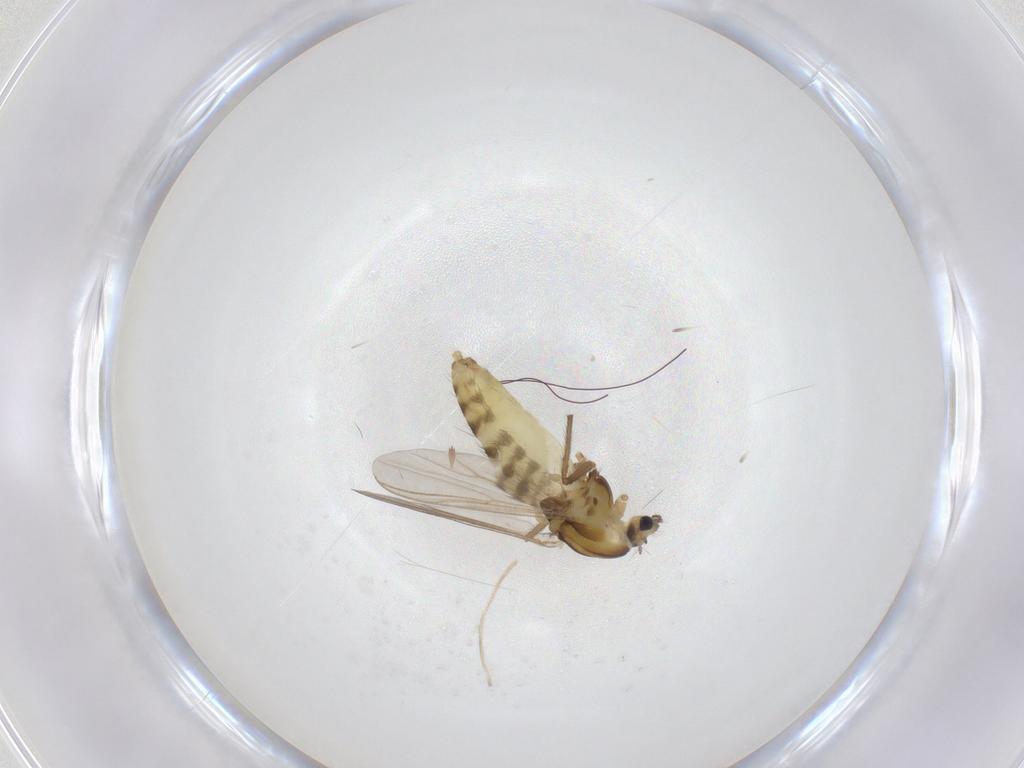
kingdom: Animalia
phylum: Arthropoda
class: Insecta
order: Diptera
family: Chironomidae
